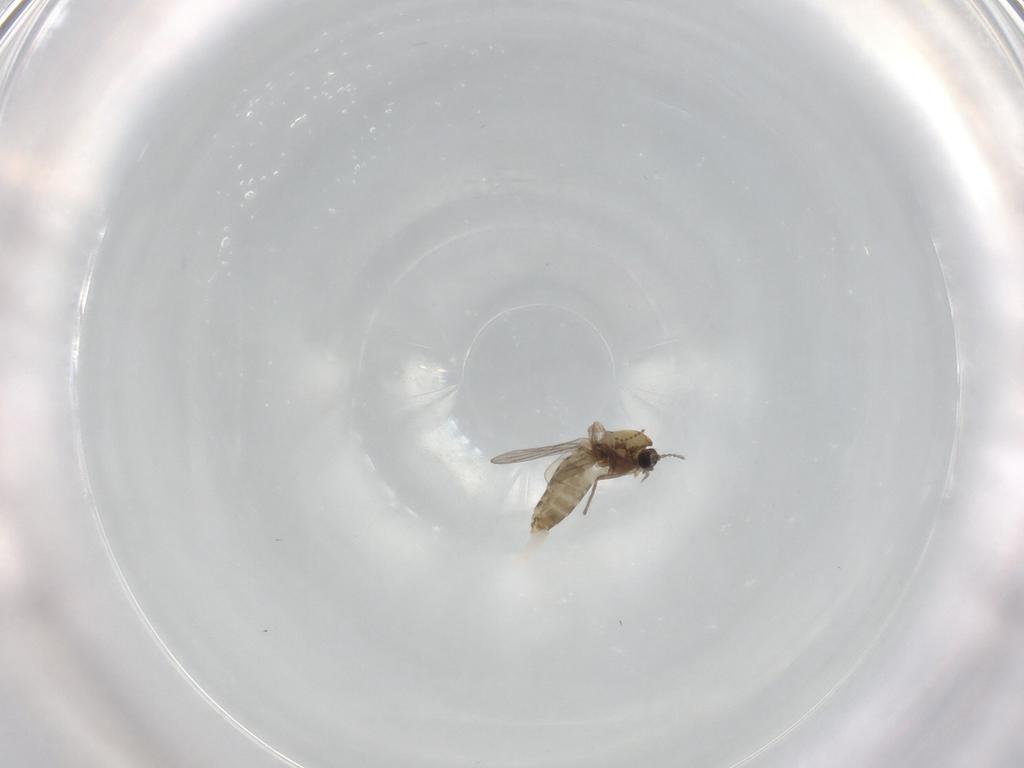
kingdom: Animalia
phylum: Arthropoda
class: Insecta
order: Diptera
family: Chironomidae
